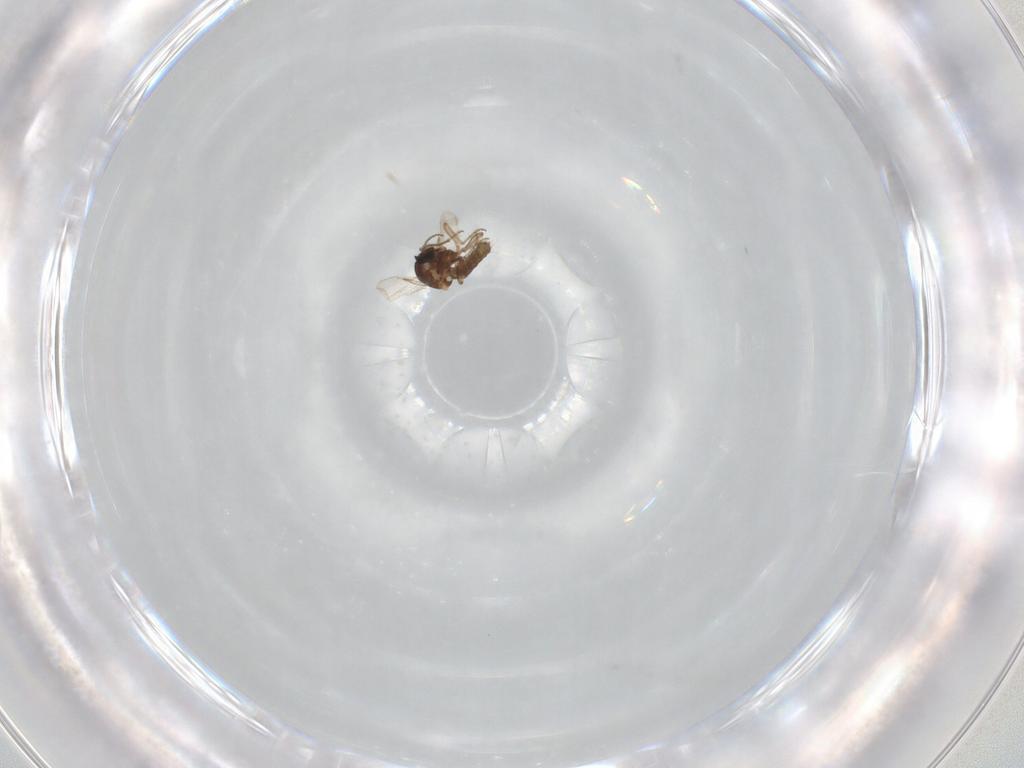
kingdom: Animalia
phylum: Arthropoda
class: Insecta
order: Diptera
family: Ceratopogonidae
